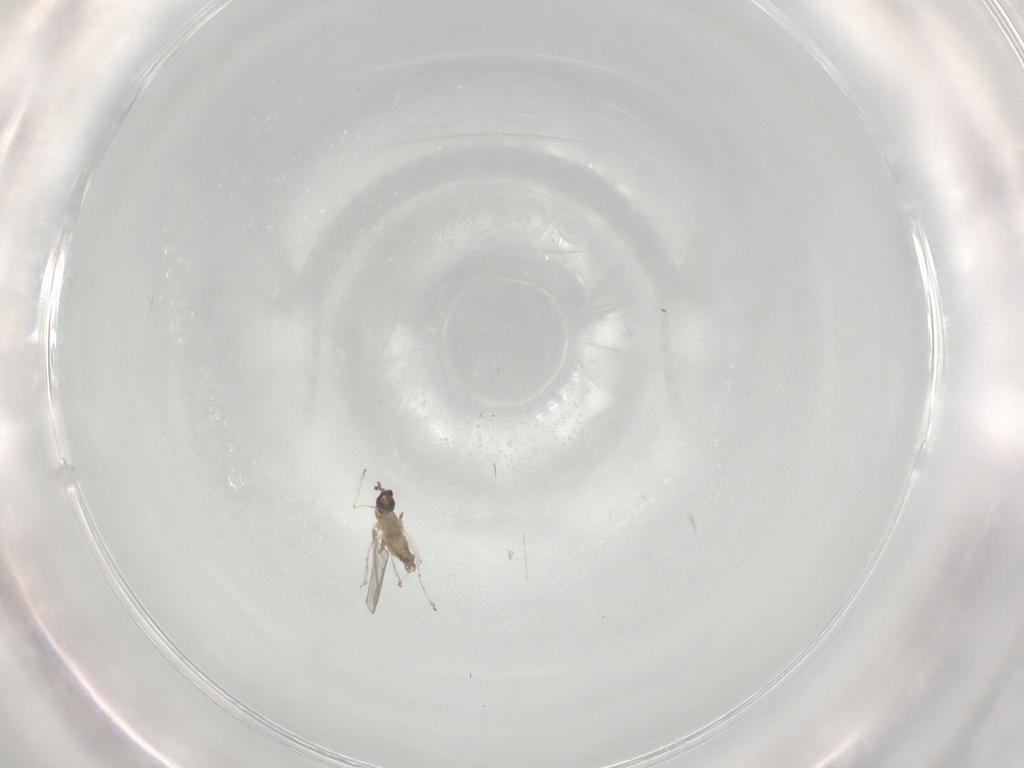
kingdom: Animalia
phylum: Arthropoda
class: Insecta
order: Diptera
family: Cecidomyiidae
